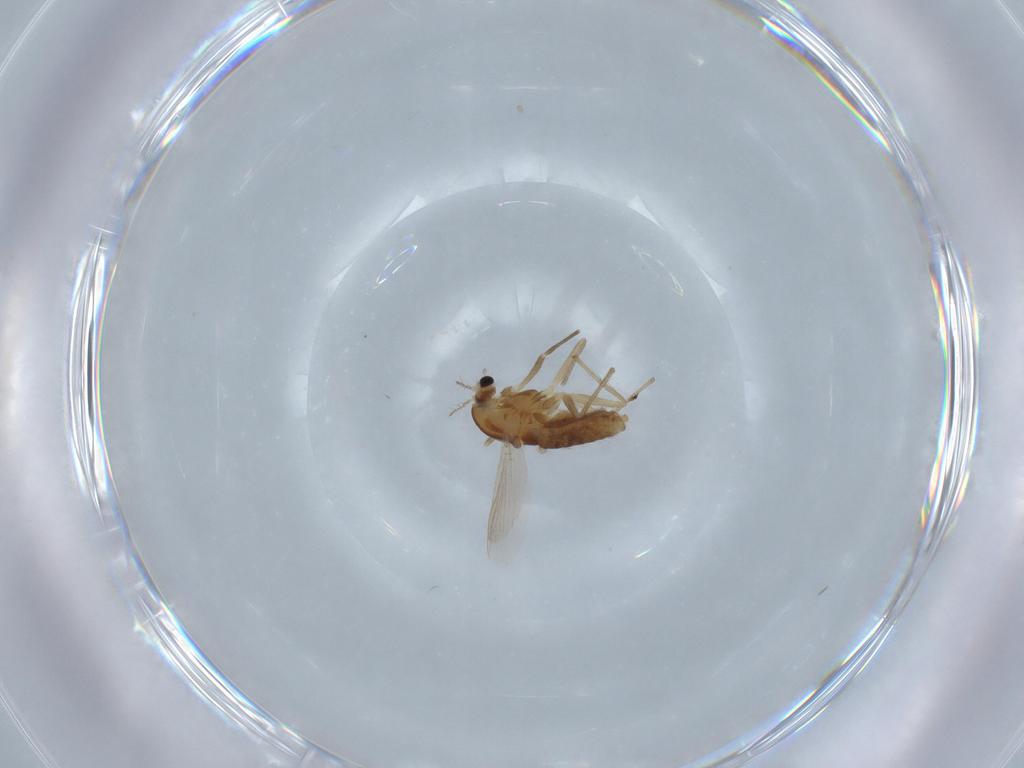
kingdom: Animalia
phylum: Arthropoda
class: Insecta
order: Diptera
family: Chironomidae
